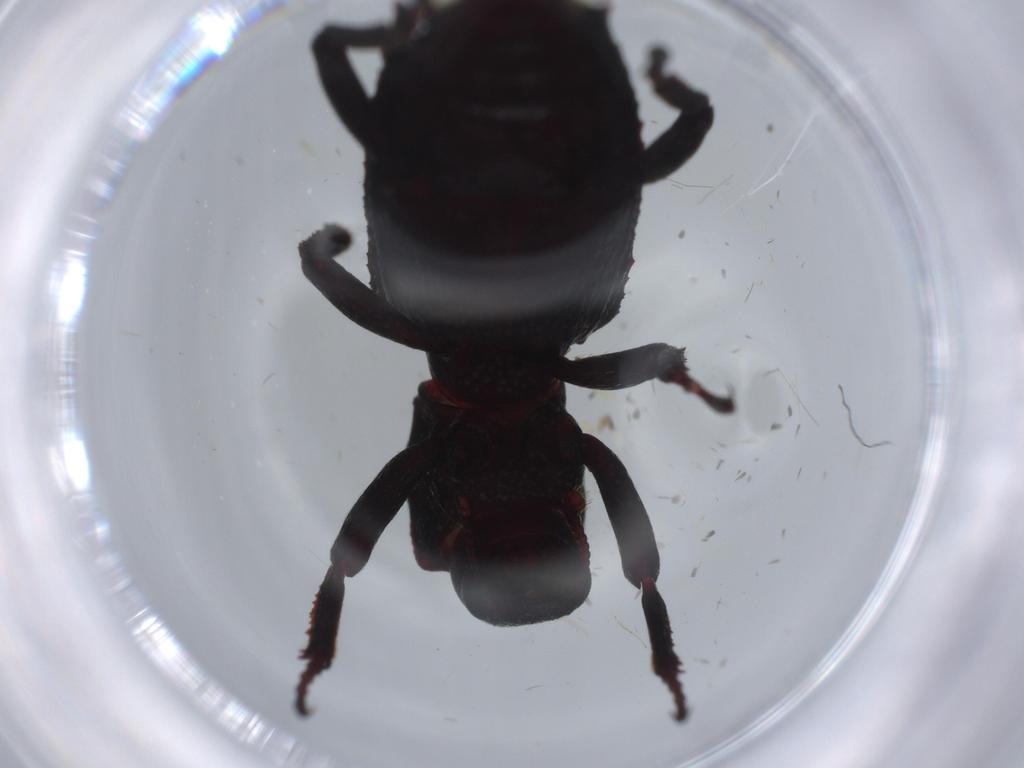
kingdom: Animalia
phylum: Arthropoda
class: Insecta
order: Coleoptera
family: Bothrideridae
